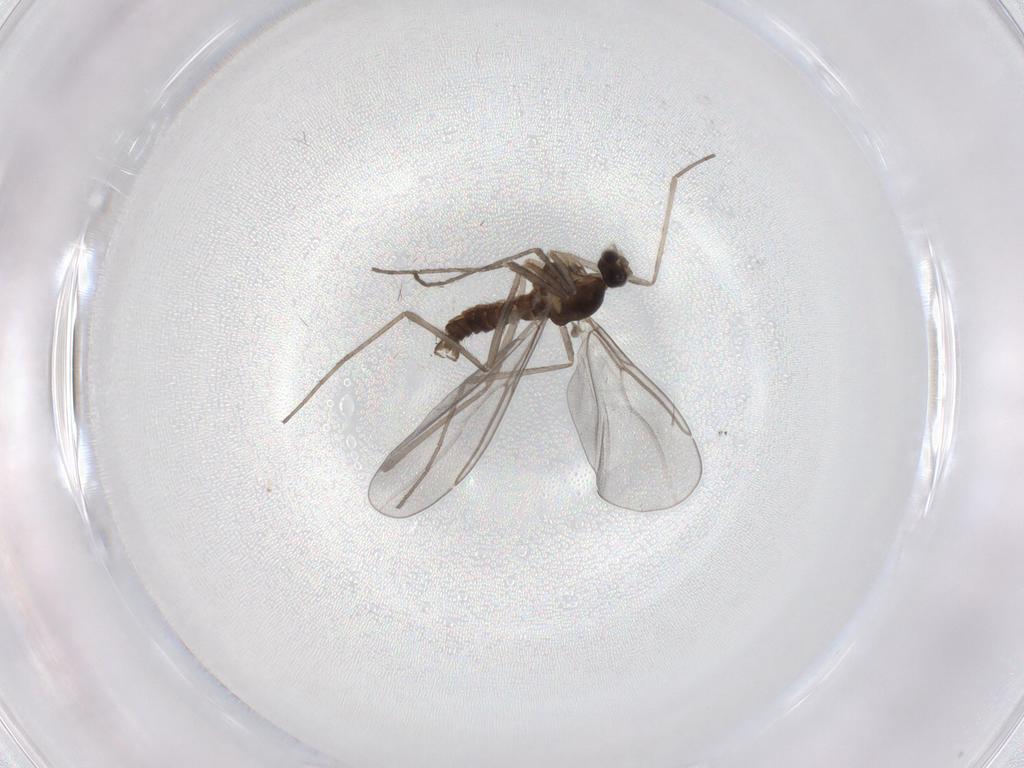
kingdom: Animalia
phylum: Arthropoda
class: Insecta
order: Diptera
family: Cecidomyiidae
